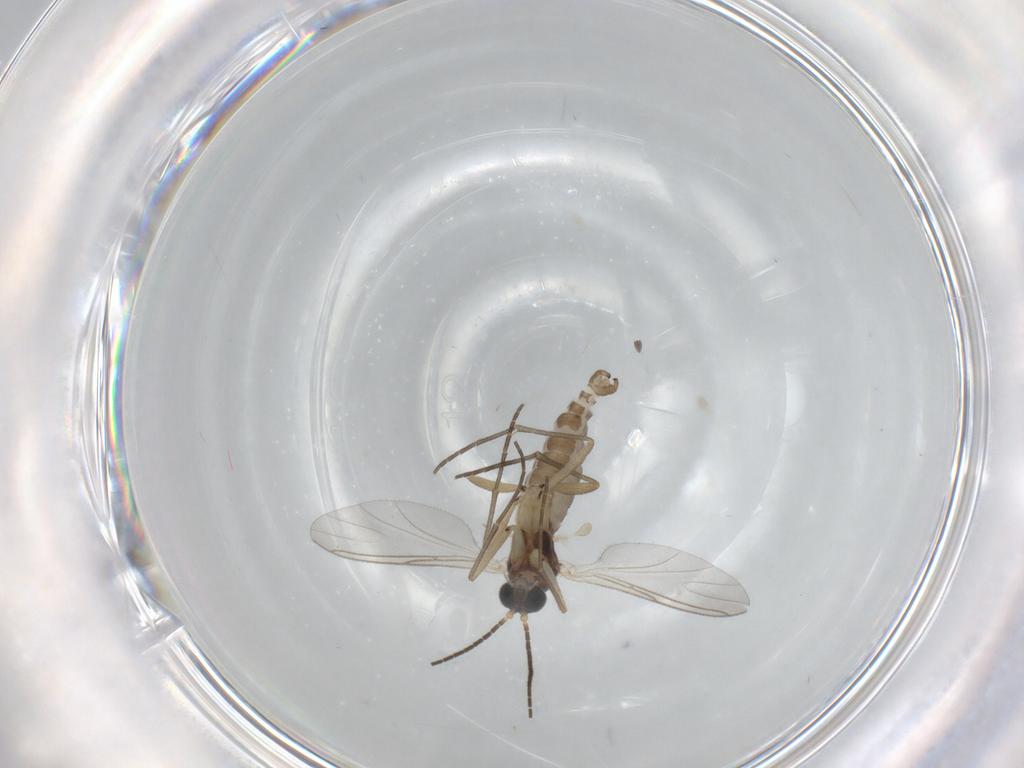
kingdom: Animalia
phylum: Arthropoda
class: Insecta
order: Diptera
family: Sciaridae
